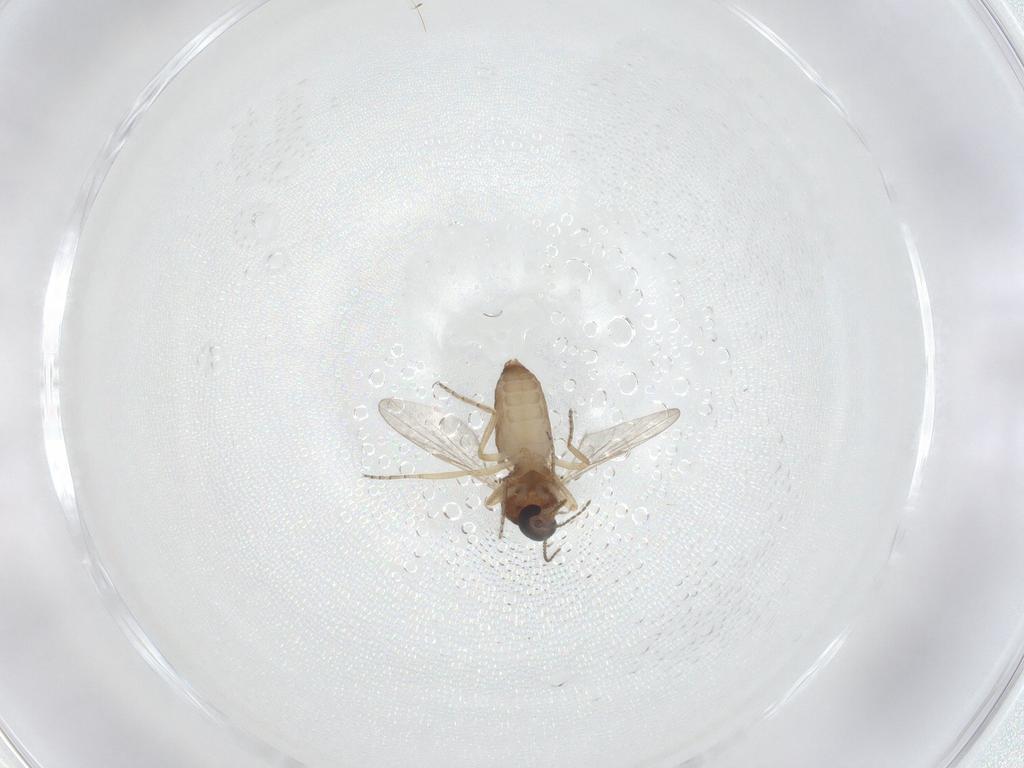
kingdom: Animalia
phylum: Arthropoda
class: Insecta
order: Diptera
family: Ceratopogonidae
